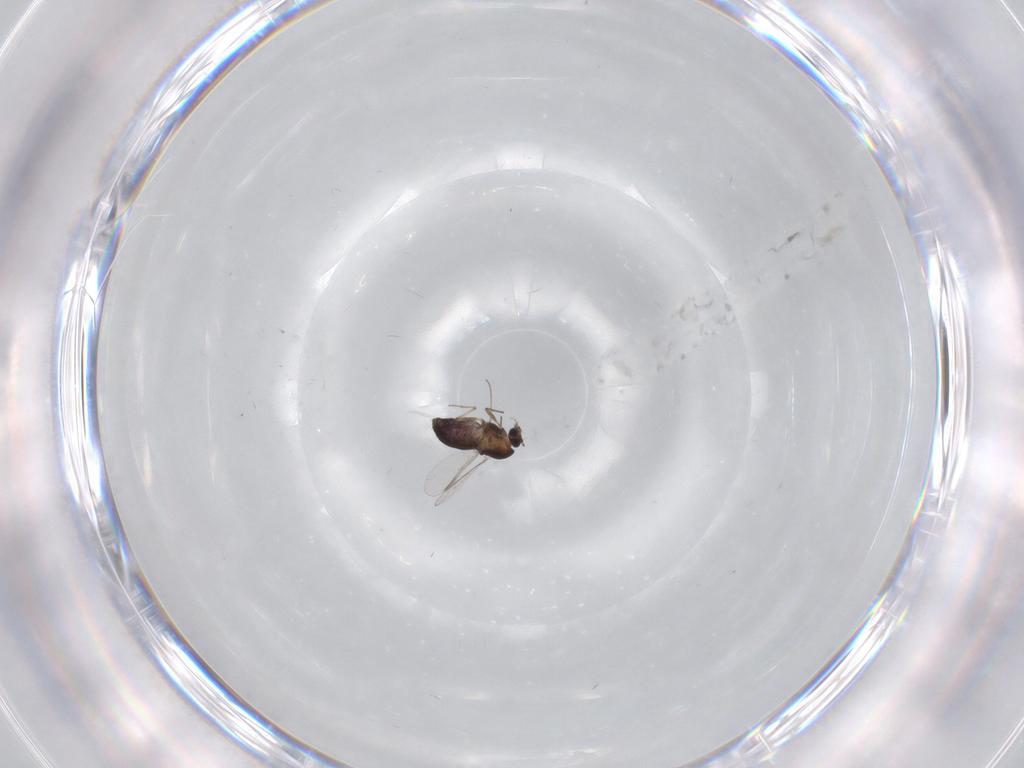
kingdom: Animalia
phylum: Arthropoda
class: Insecta
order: Diptera
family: Chironomidae
